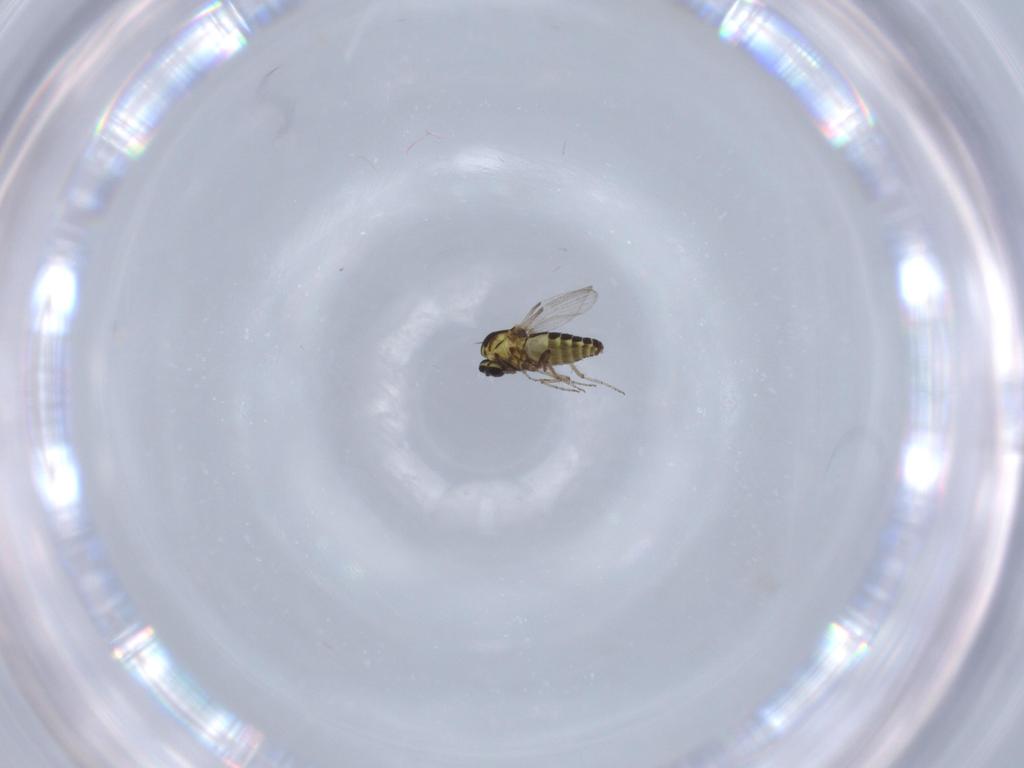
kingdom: Animalia
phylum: Arthropoda
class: Insecta
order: Diptera
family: Ceratopogonidae
